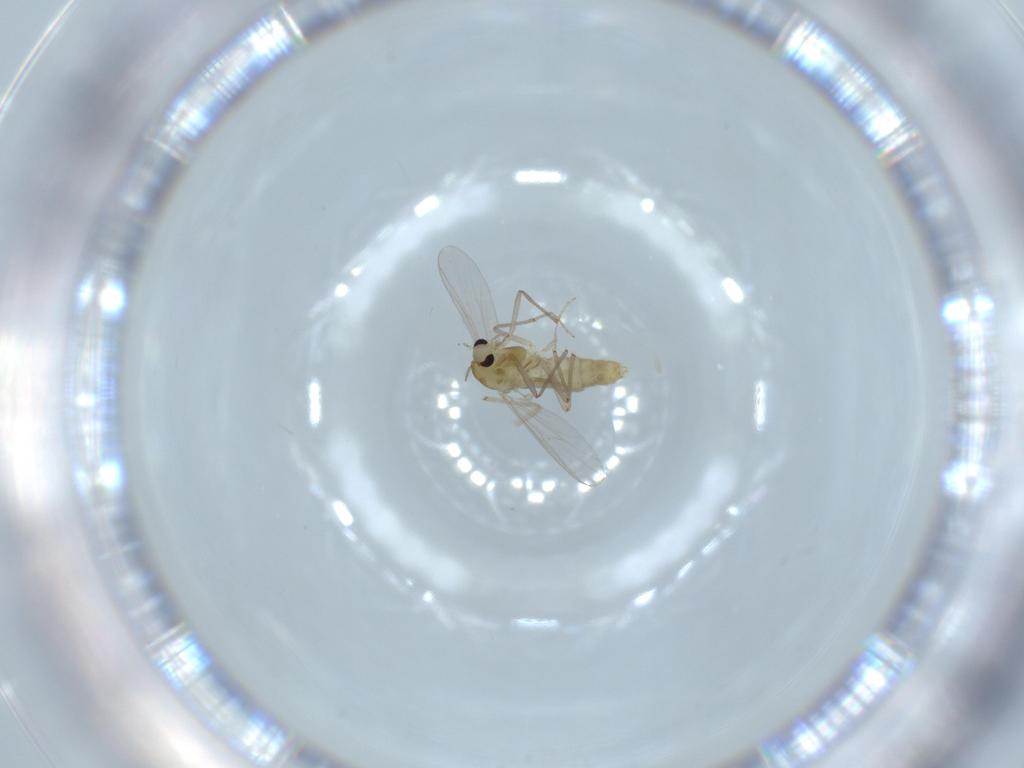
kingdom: Animalia
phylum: Arthropoda
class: Insecta
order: Diptera
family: Chironomidae
